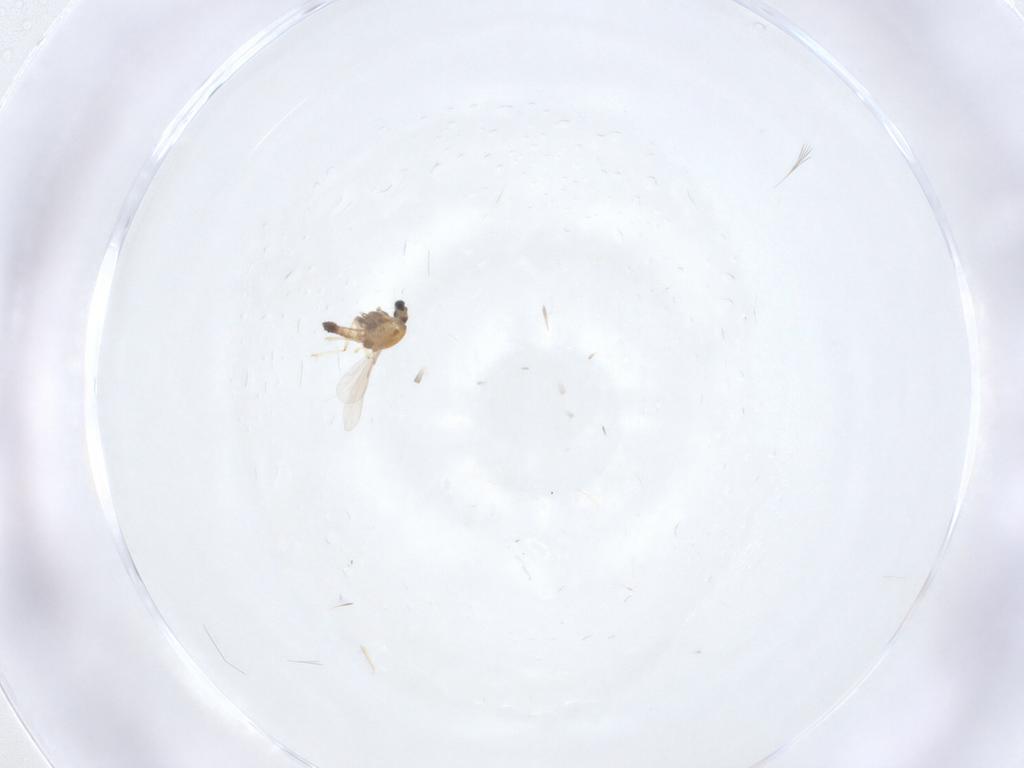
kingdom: Animalia
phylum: Arthropoda
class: Insecta
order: Diptera
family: Chironomidae
